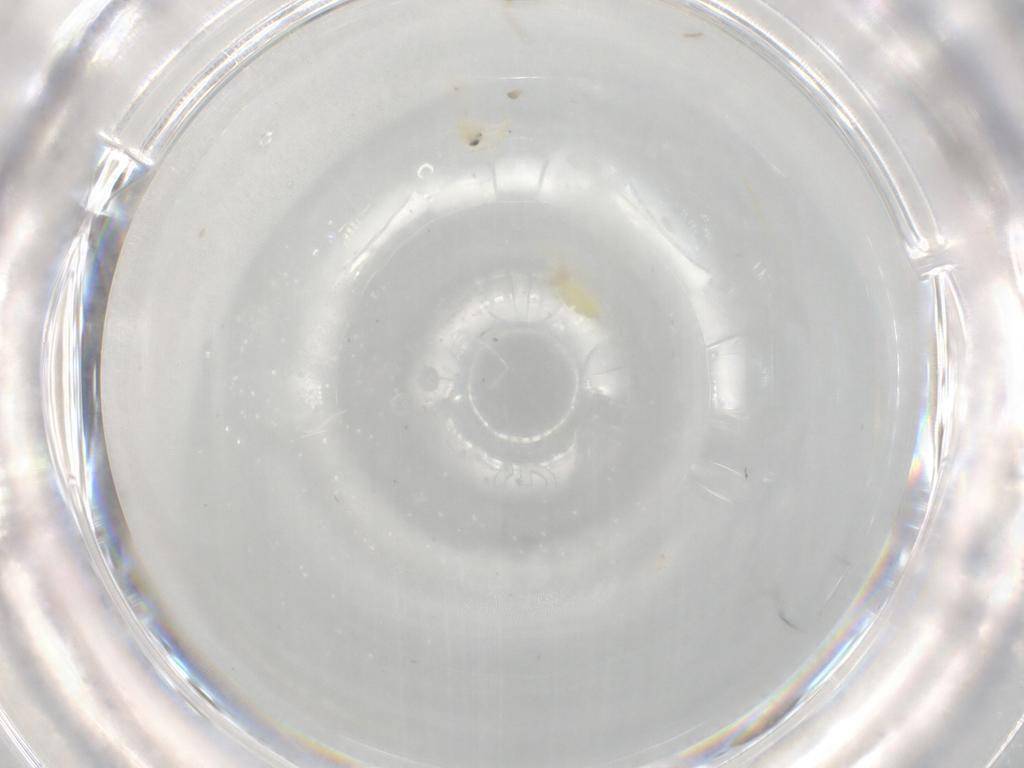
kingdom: Animalia
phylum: Arthropoda
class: Insecta
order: Hemiptera
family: Aleyrodidae
